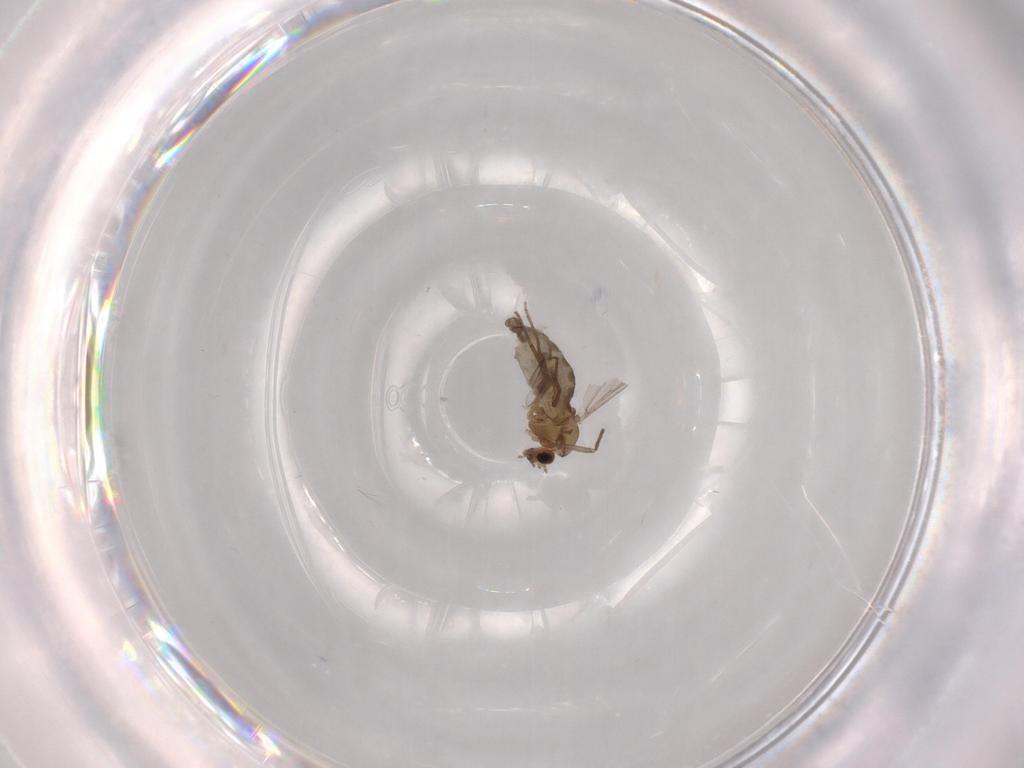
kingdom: Animalia
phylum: Arthropoda
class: Insecta
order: Diptera
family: Chironomidae
